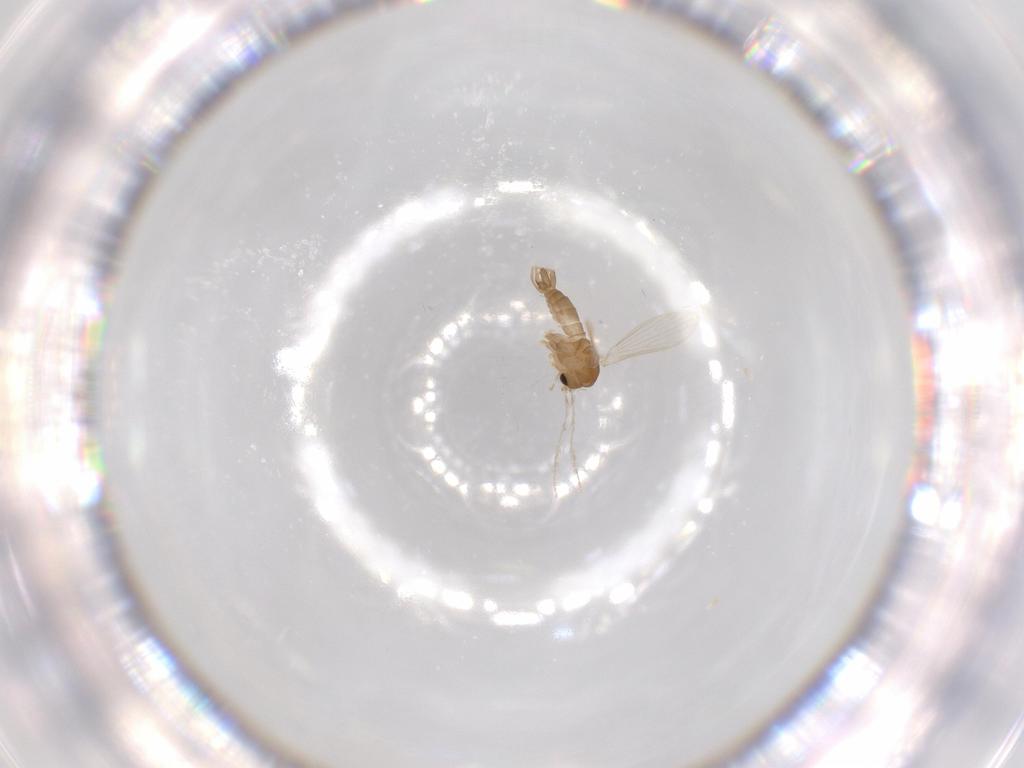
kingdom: Animalia
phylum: Arthropoda
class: Insecta
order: Diptera
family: Psychodidae
